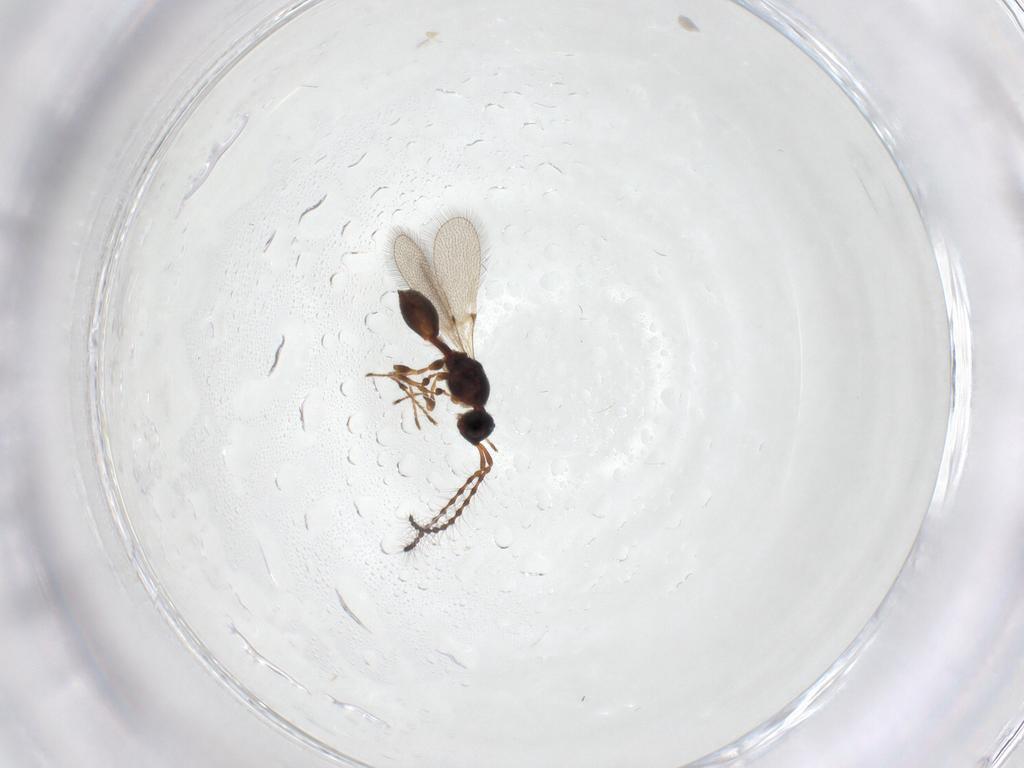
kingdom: Animalia
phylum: Arthropoda
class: Insecta
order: Hymenoptera
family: Diapriidae
